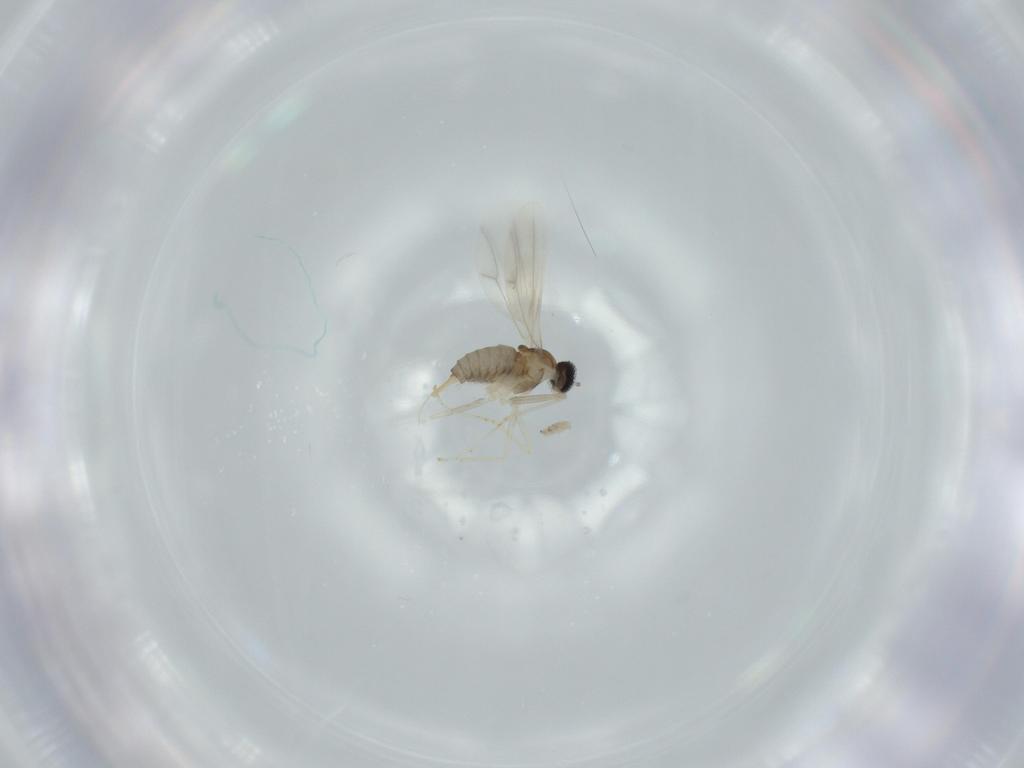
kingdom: Animalia
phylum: Arthropoda
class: Insecta
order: Diptera
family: Cecidomyiidae
